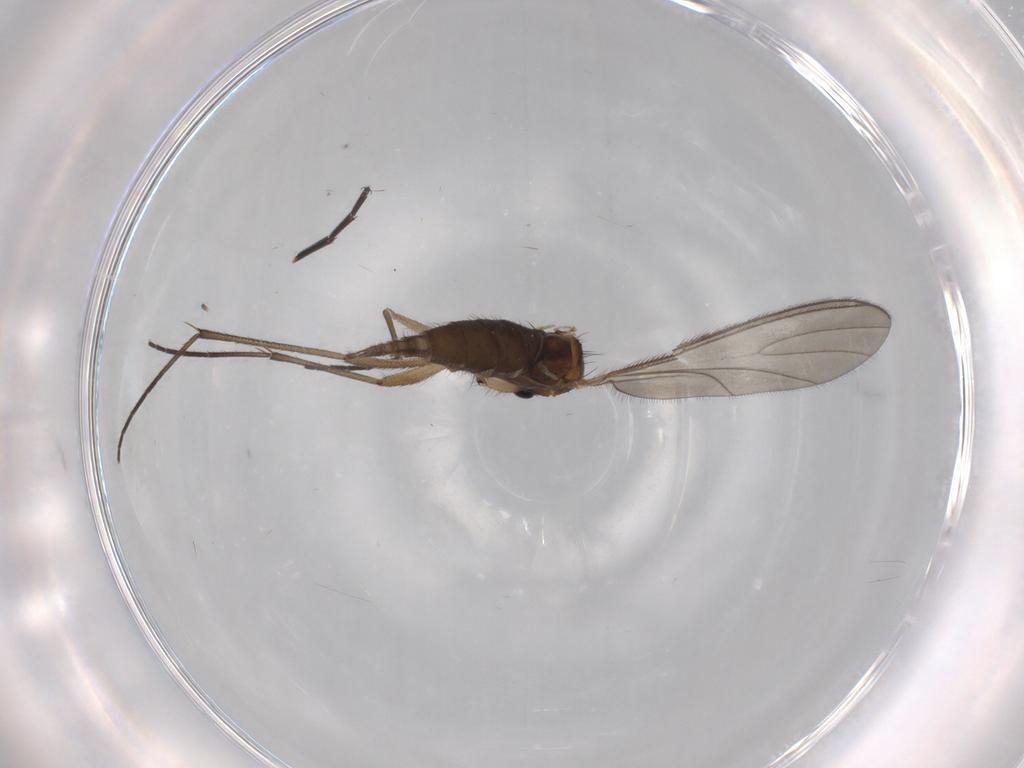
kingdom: Animalia
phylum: Arthropoda
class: Insecta
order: Diptera
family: Sciaridae
